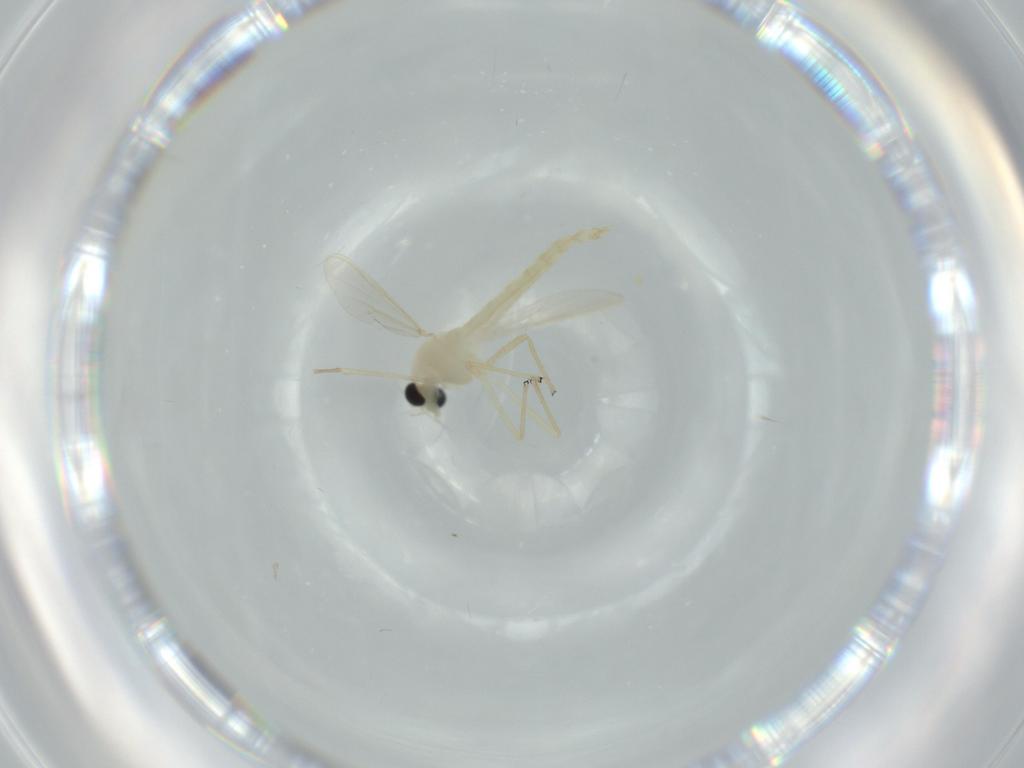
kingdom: Animalia
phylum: Arthropoda
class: Insecta
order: Diptera
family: Chironomidae
